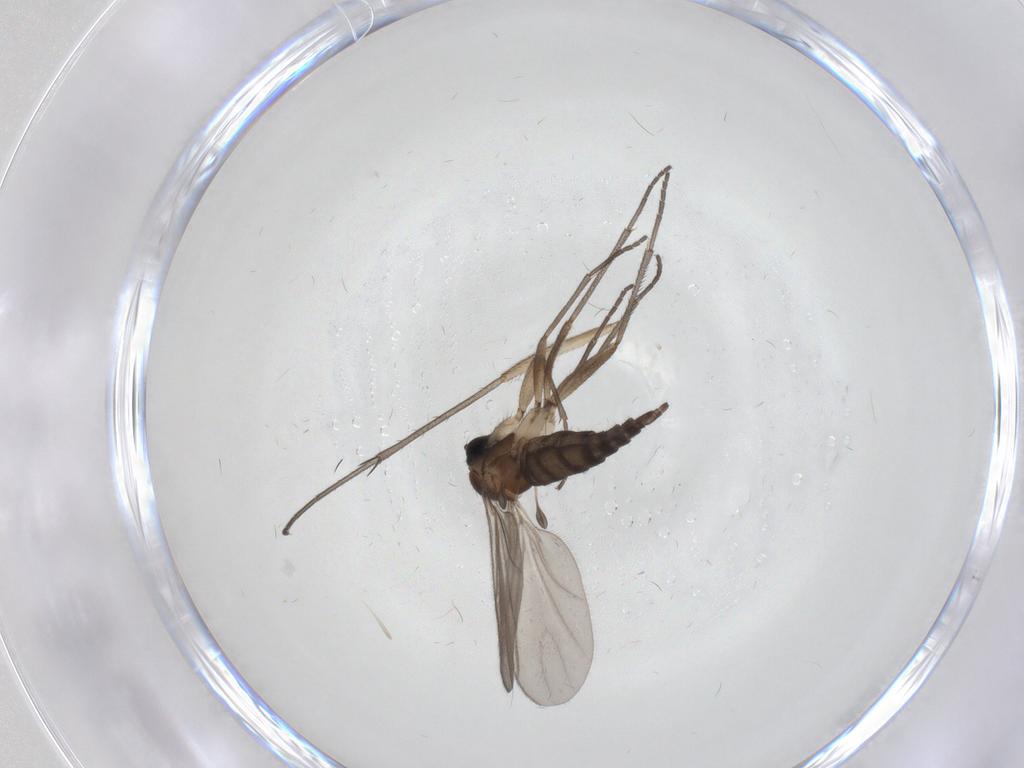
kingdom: Animalia
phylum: Arthropoda
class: Insecta
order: Diptera
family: Sciaridae
